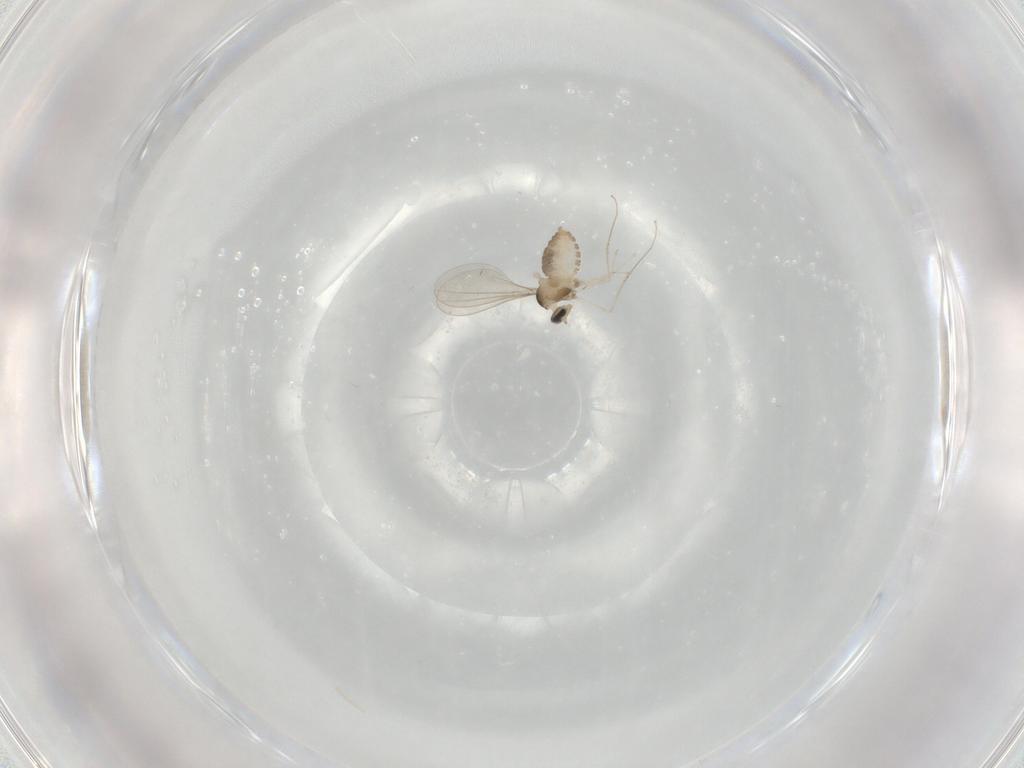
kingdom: Animalia
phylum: Arthropoda
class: Insecta
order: Diptera
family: Cecidomyiidae
